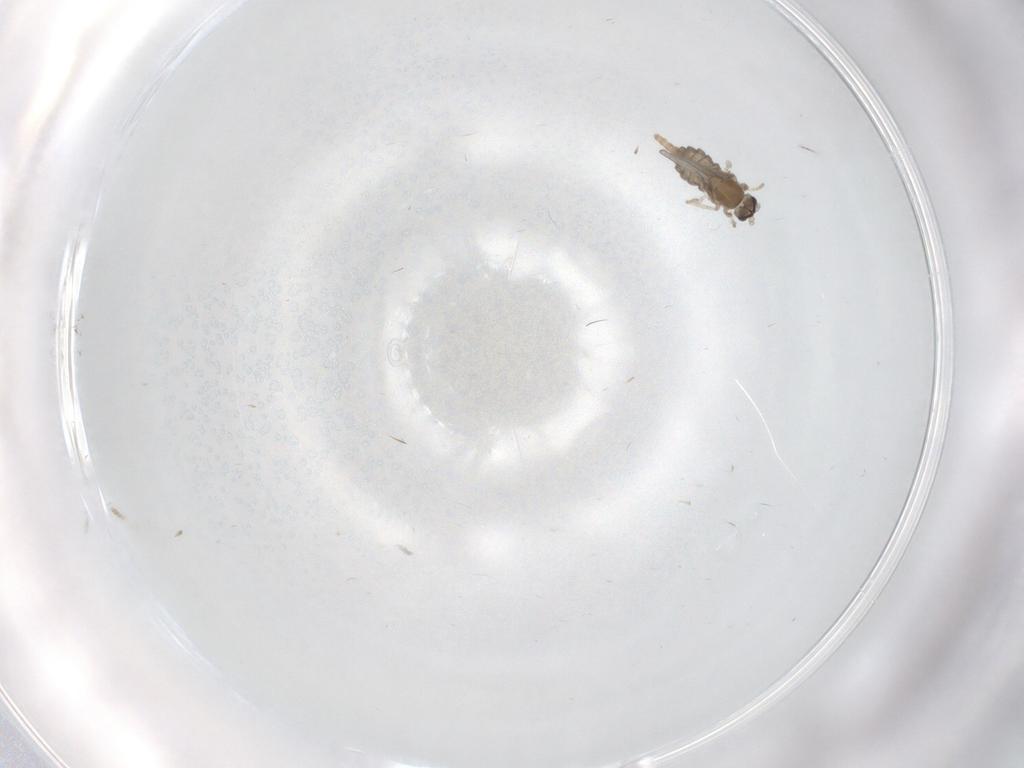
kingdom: Animalia
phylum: Arthropoda
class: Insecta
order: Diptera
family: Cecidomyiidae
